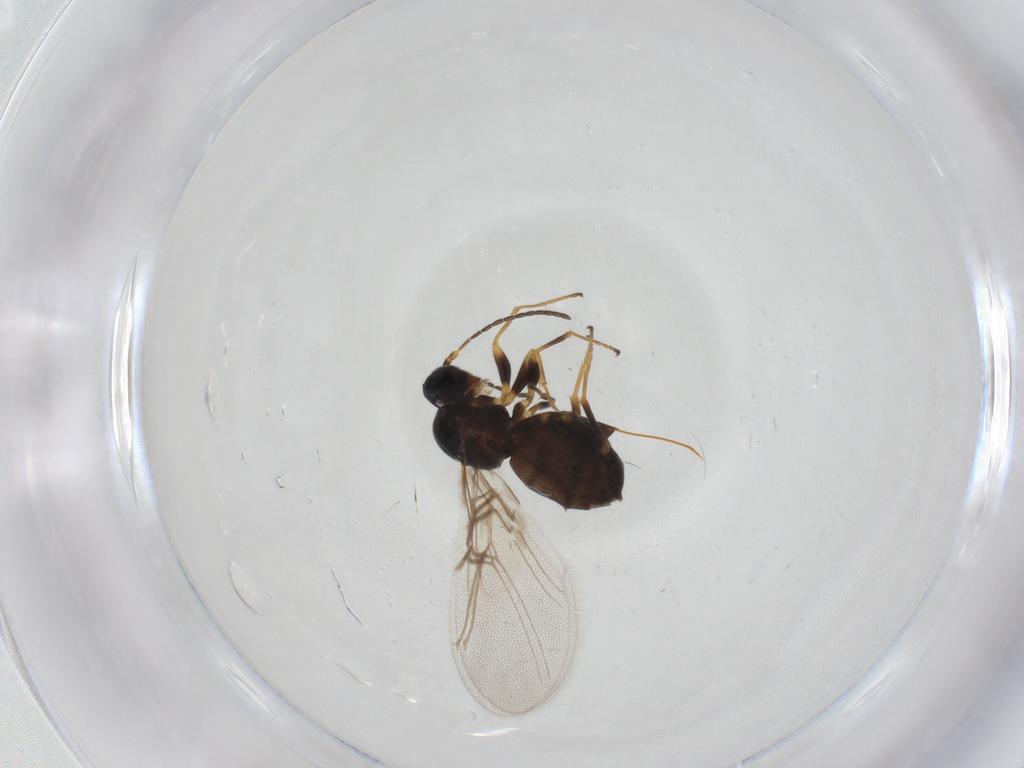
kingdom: Animalia
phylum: Arthropoda
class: Insecta
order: Hymenoptera
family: Cynipidae
